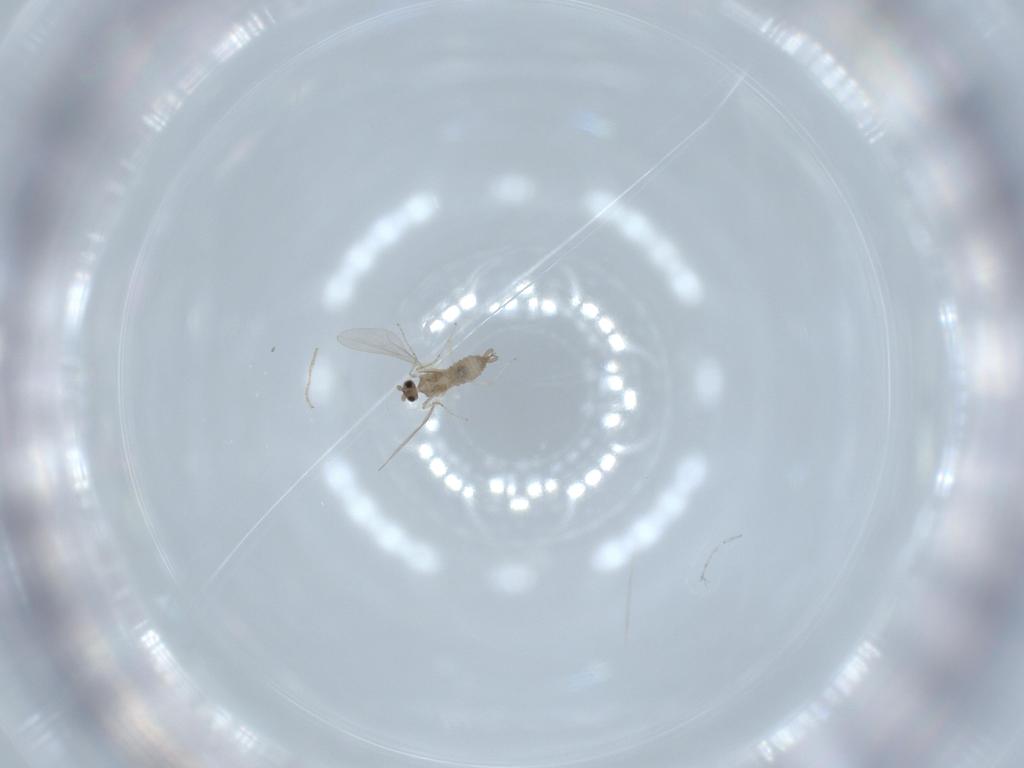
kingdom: Animalia
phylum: Arthropoda
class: Insecta
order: Diptera
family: Cecidomyiidae
